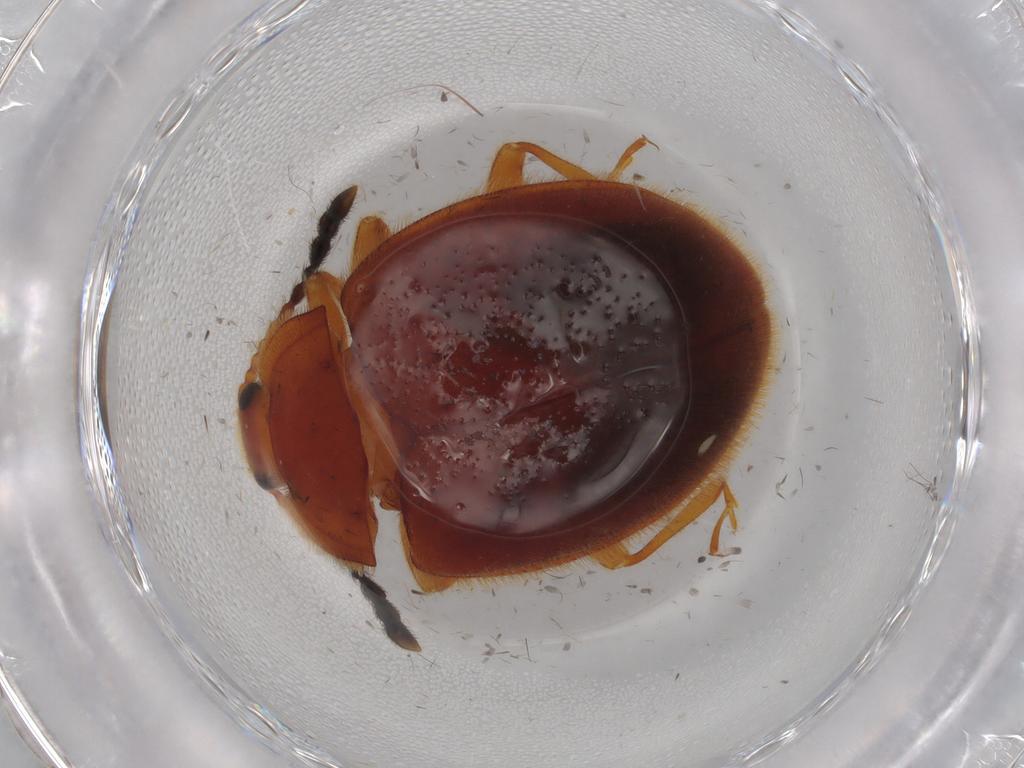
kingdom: Animalia
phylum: Arthropoda
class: Insecta
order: Coleoptera
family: Endomychidae
